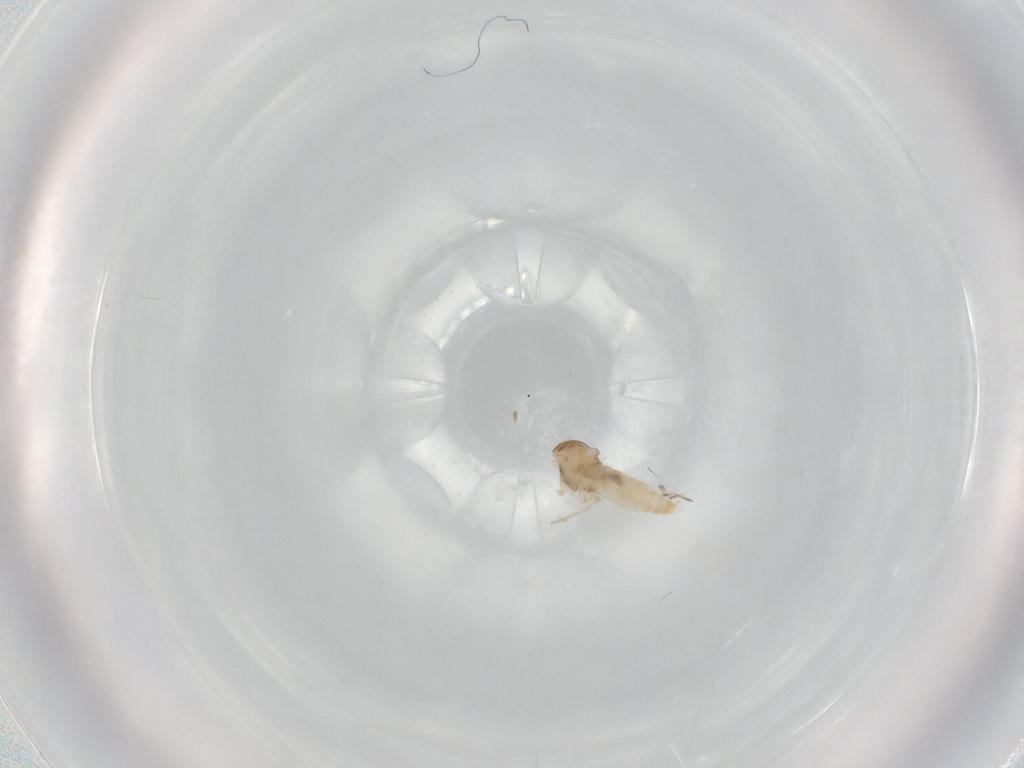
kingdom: Animalia
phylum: Arthropoda
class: Insecta
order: Diptera
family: Cecidomyiidae
